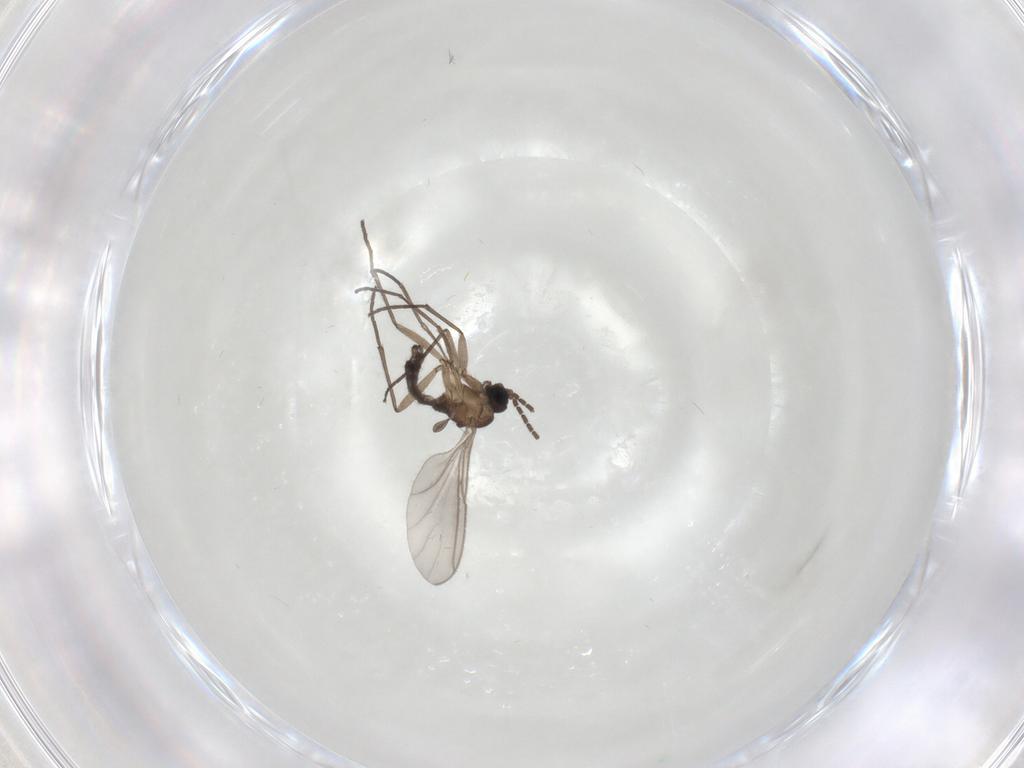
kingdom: Animalia
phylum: Arthropoda
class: Insecta
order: Diptera
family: Sciaridae
